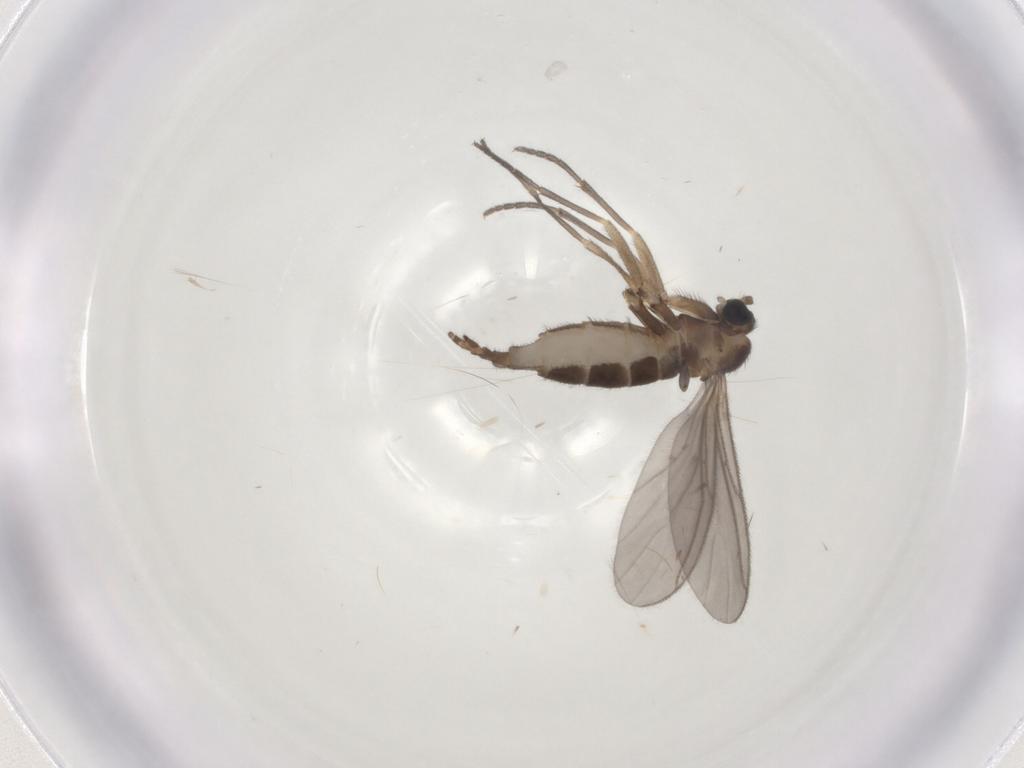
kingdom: Animalia
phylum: Arthropoda
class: Insecta
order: Diptera
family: Sciaridae
